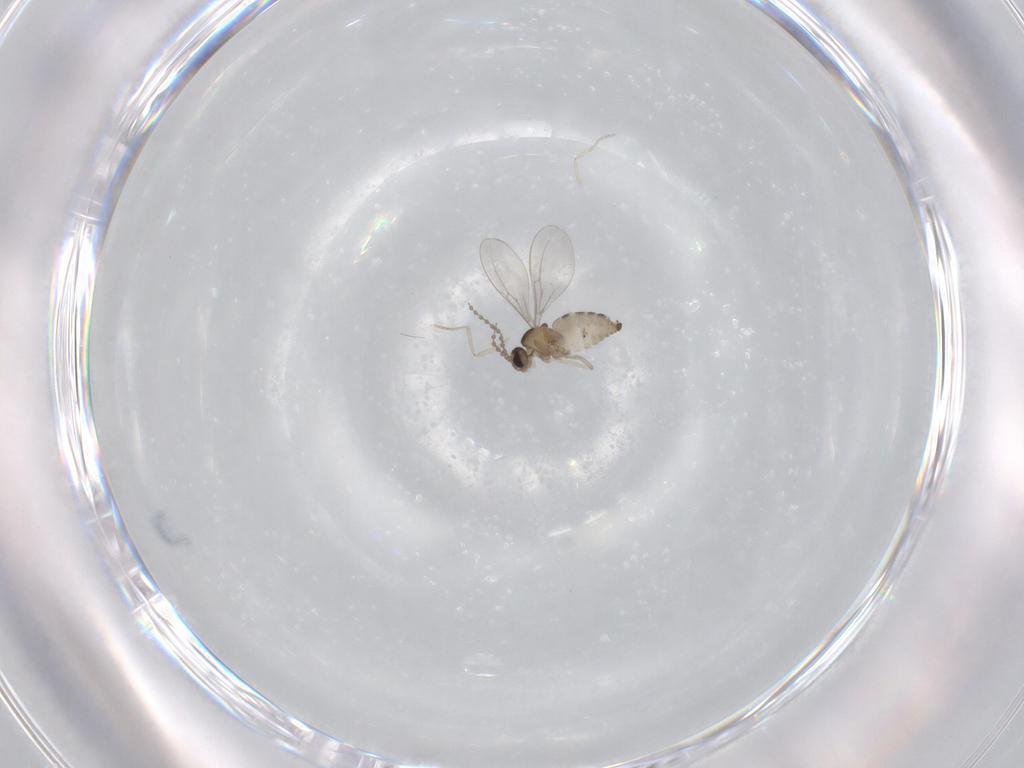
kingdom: Animalia
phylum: Arthropoda
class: Insecta
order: Diptera
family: Cecidomyiidae
